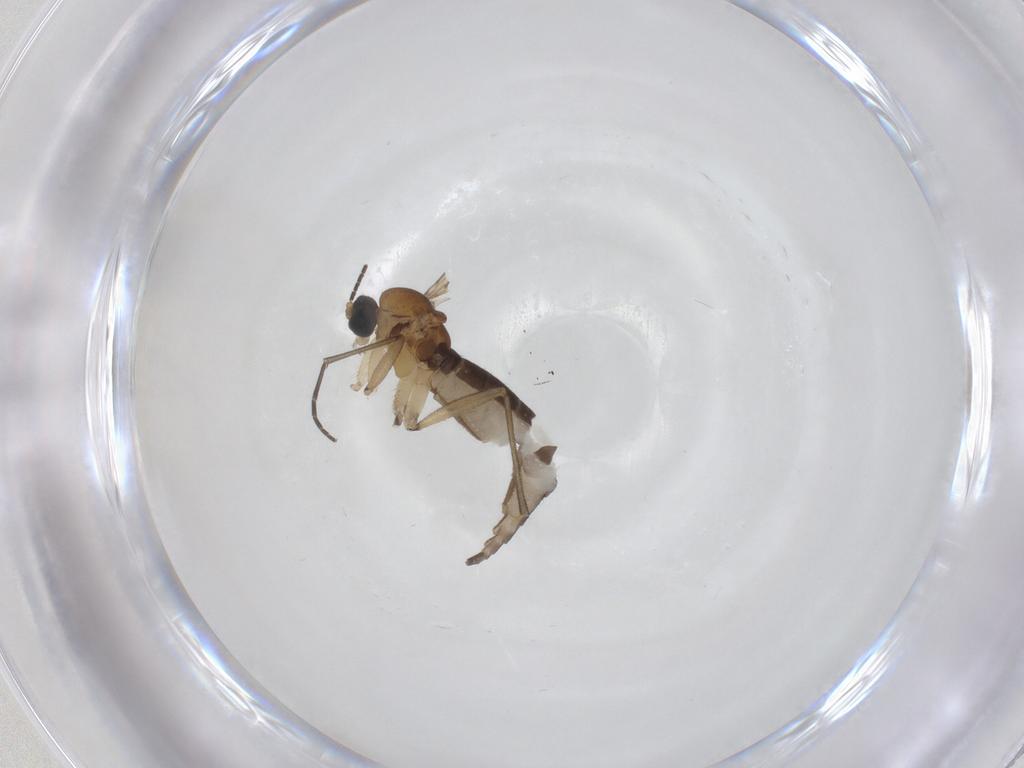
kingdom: Animalia
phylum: Arthropoda
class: Insecta
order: Diptera
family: Sciaridae
